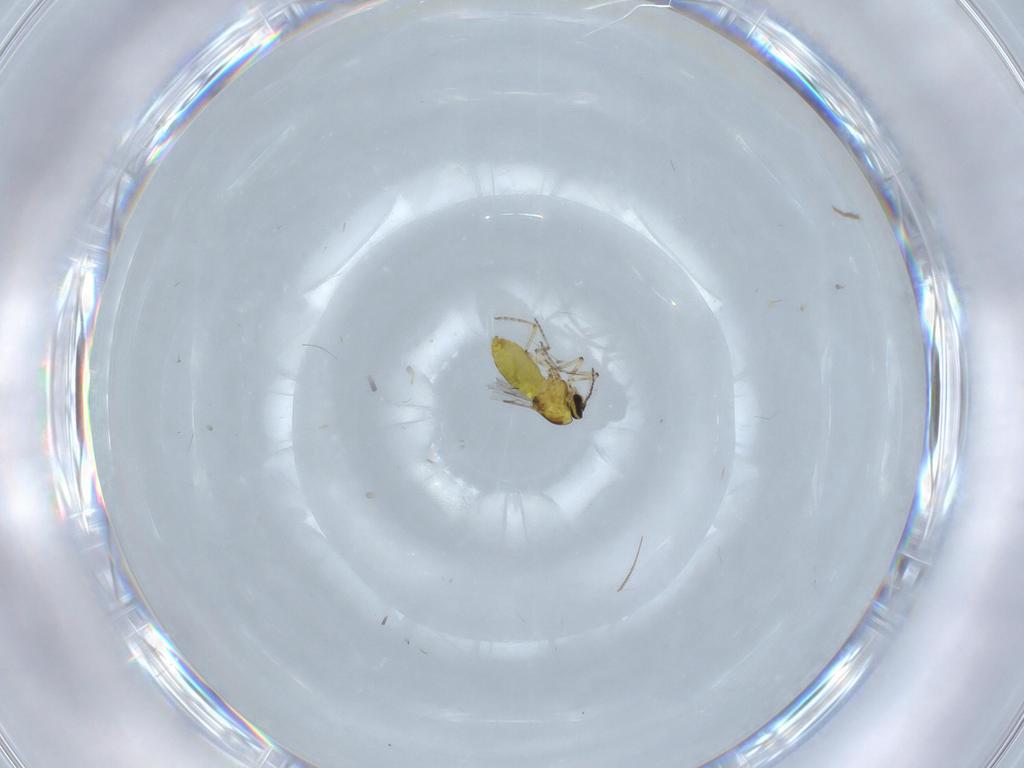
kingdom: Animalia
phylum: Arthropoda
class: Insecta
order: Diptera
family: Ceratopogonidae
